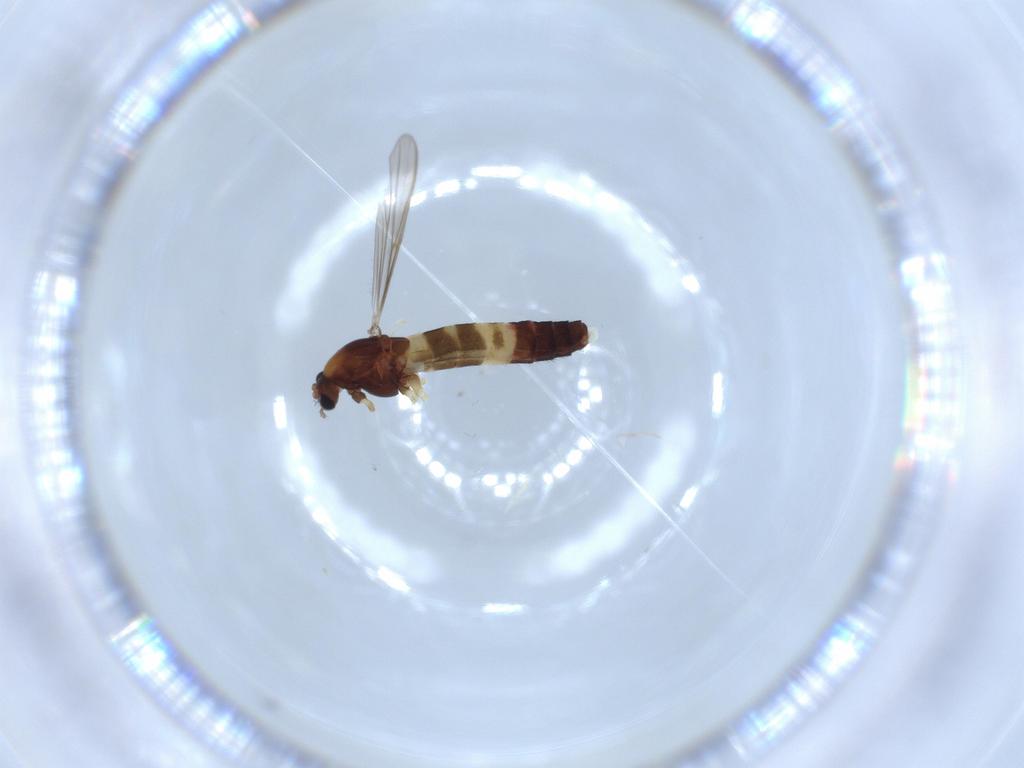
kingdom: Animalia
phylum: Arthropoda
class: Insecta
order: Diptera
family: Chironomidae
